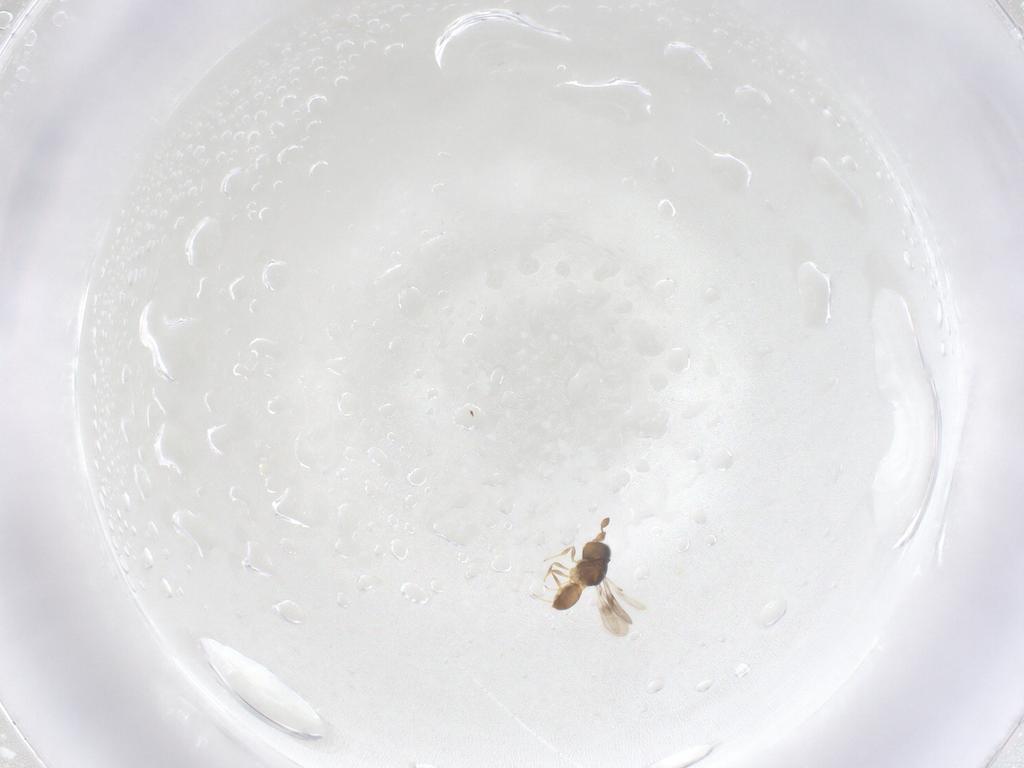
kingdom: Animalia
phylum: Arthropoda
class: Insecta
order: Hymenoptera
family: Scelionidae
